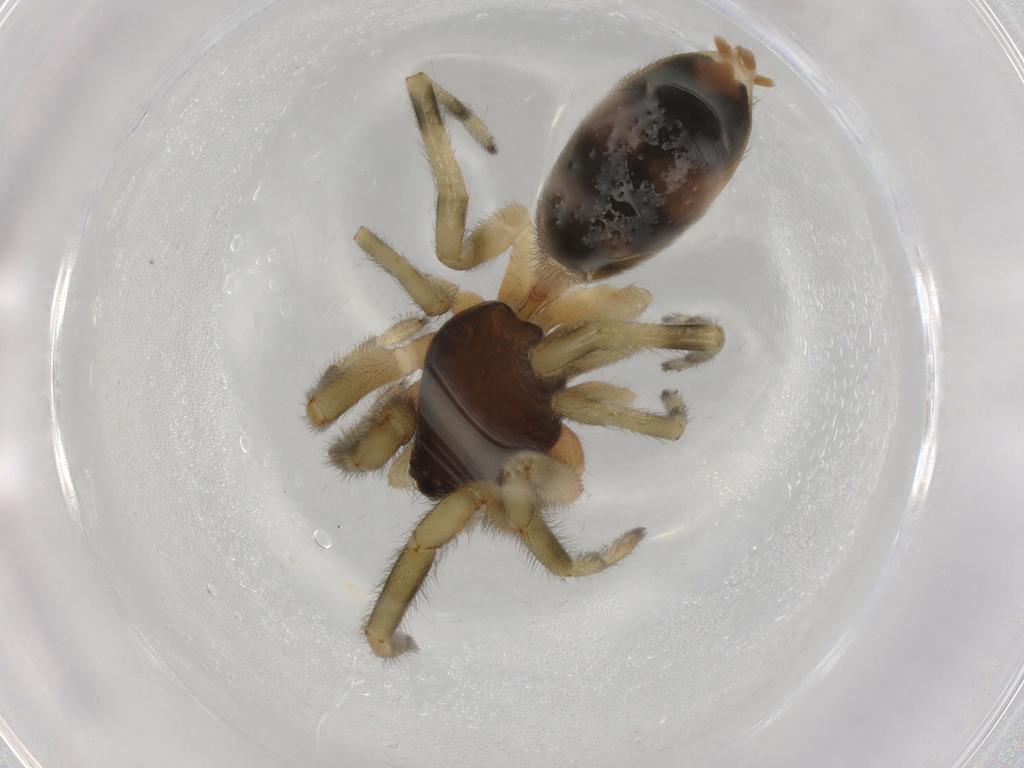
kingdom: Animalia
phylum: Arthropoda
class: Arachnida
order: Araneae
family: Lamponidae
